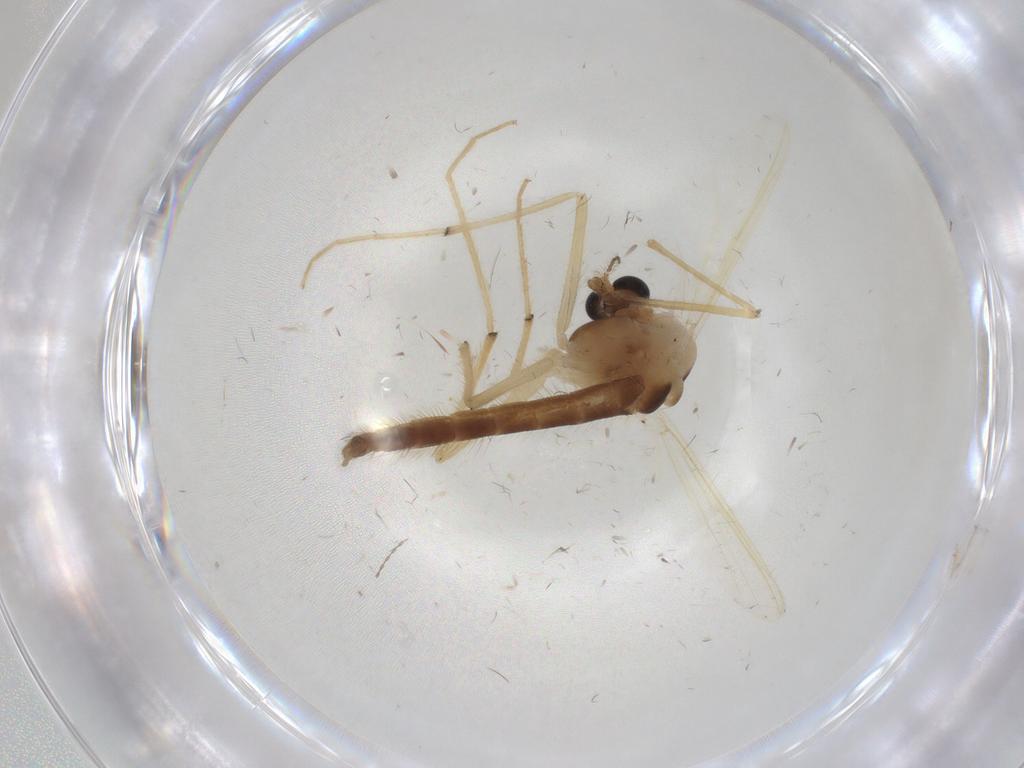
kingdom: Animalia
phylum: Arthropoda
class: Insecta
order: Diptera
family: Chironomidae
